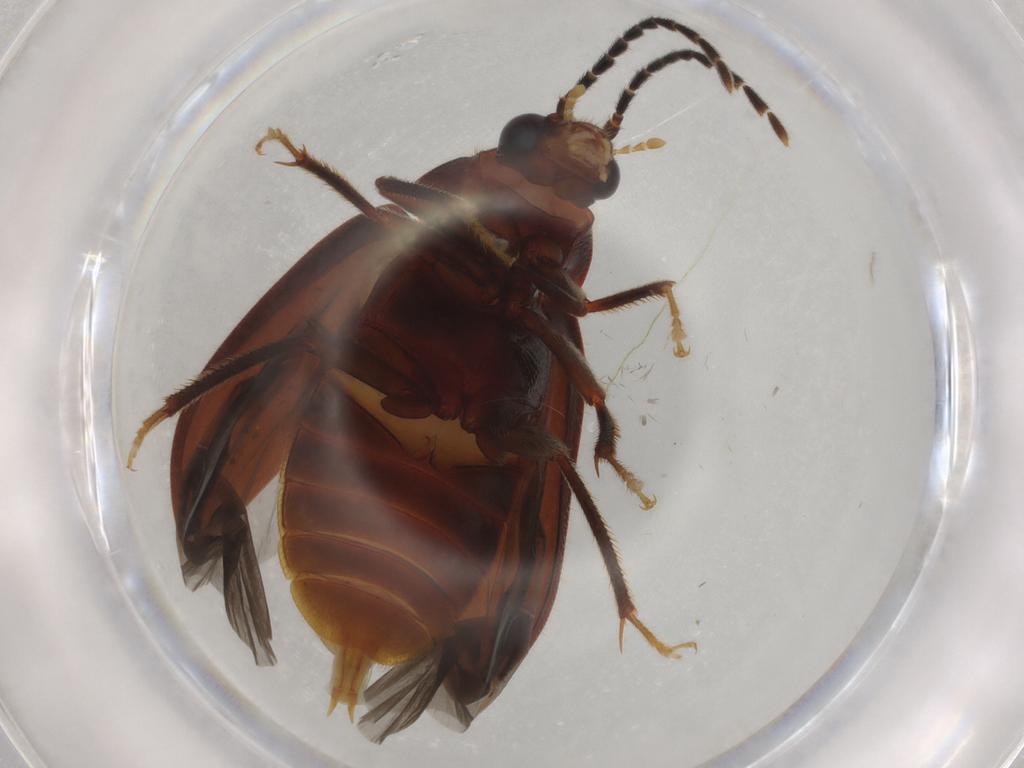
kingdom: Animalia
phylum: Arthropoda
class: Insecta
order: Coleoptera
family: Ptilodactylidae
